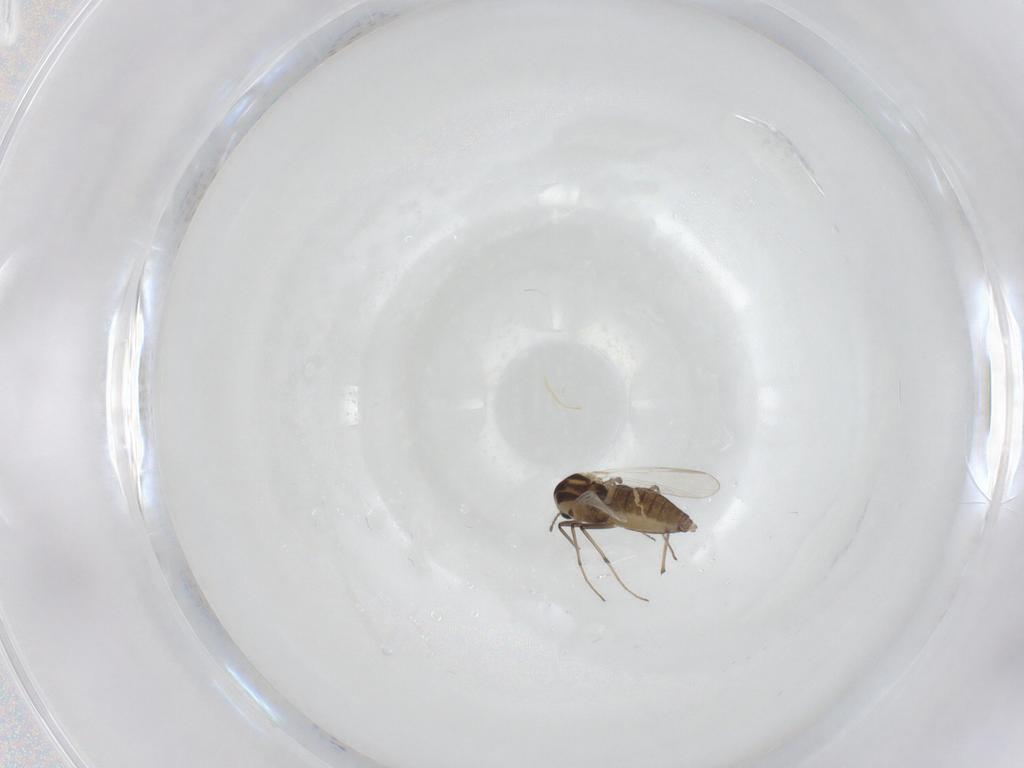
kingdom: Animalia
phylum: Arthropoda
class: Insecta
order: Diptera
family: Chironomidae
